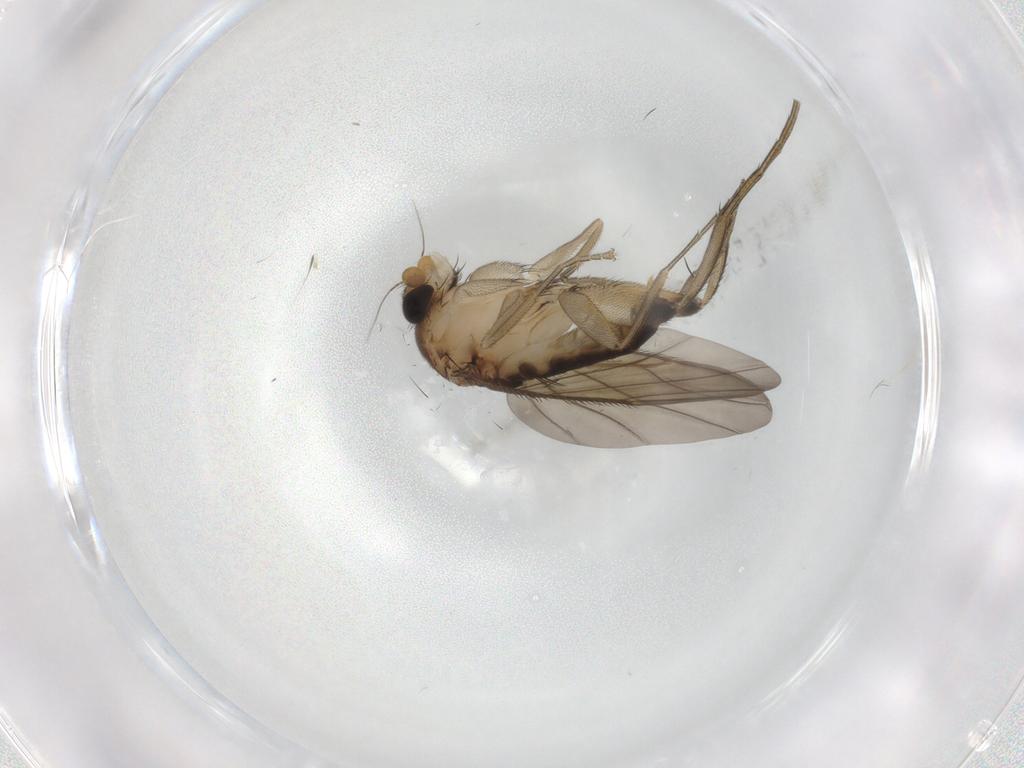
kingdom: Animalia
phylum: Arthropoda
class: Insecta
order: Diptera
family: Phoridae
